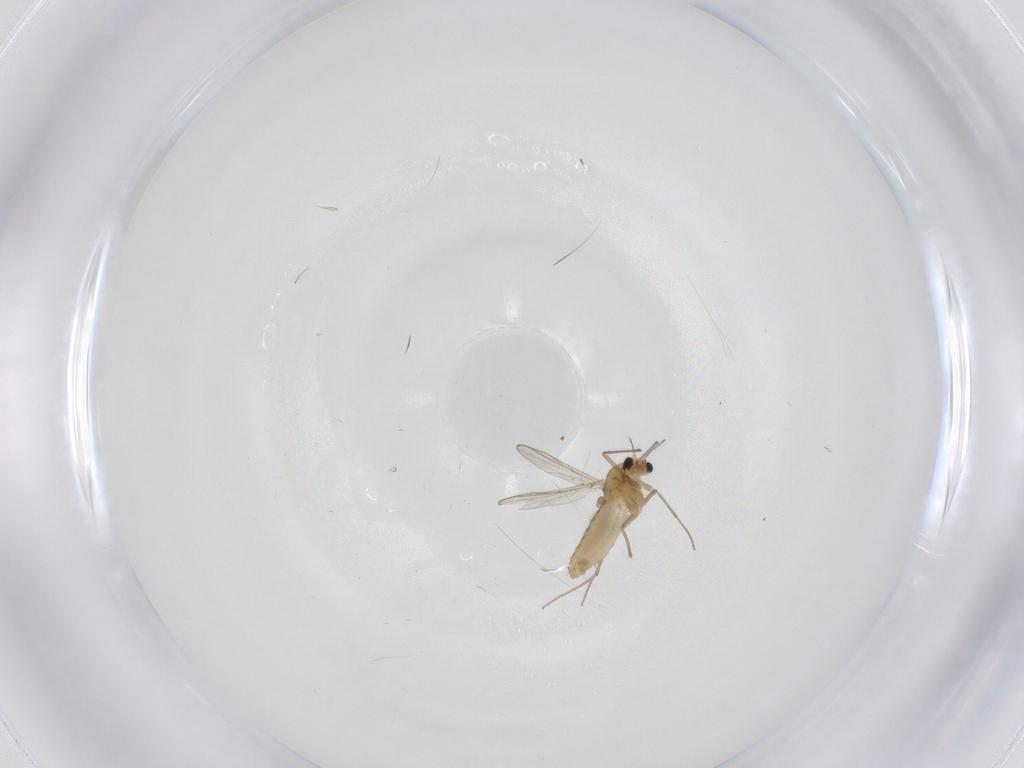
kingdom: Animalia
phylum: Arthropoda
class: Insecta
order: Diptera
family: Chironomidae
